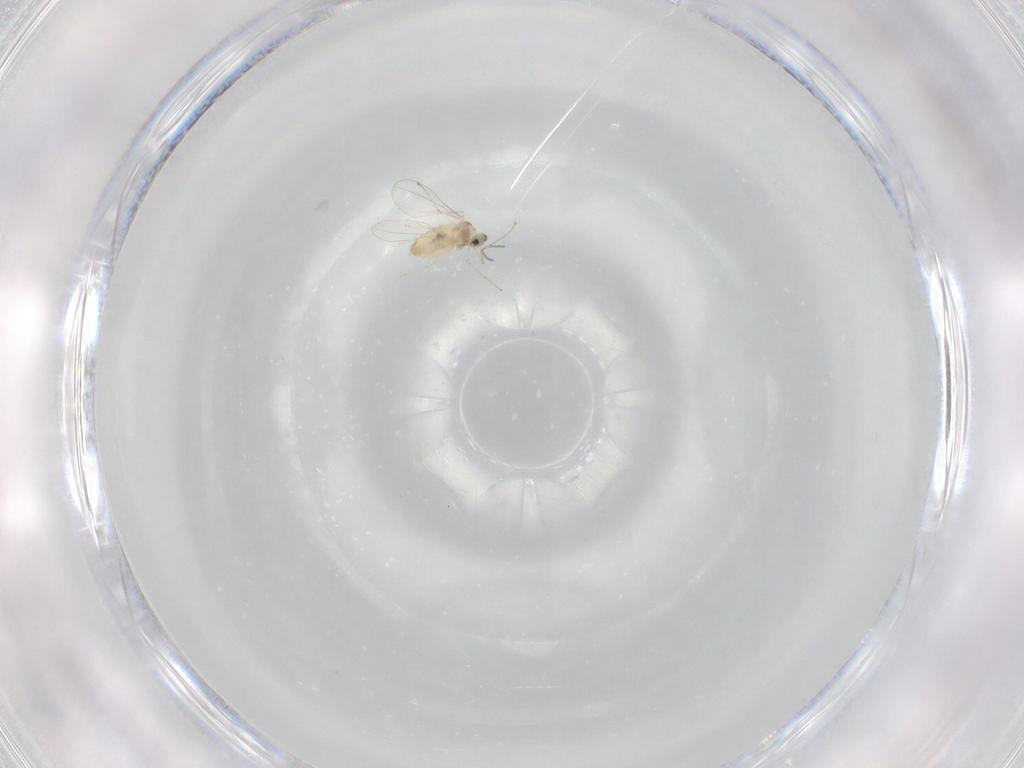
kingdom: Animalia
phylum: Arthropoda
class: Insecta
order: Diptera
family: Cecidomyiidae
